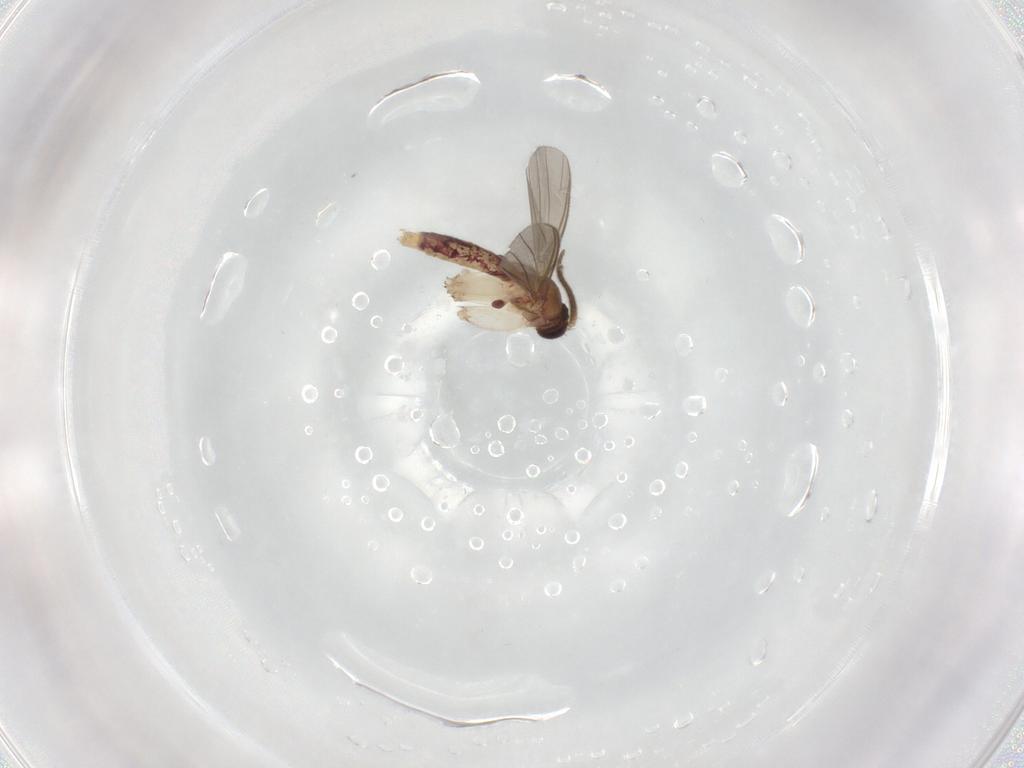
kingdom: Animalia
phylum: Arthropoda
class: Insecta
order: Diptera
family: Mycetophilidae
